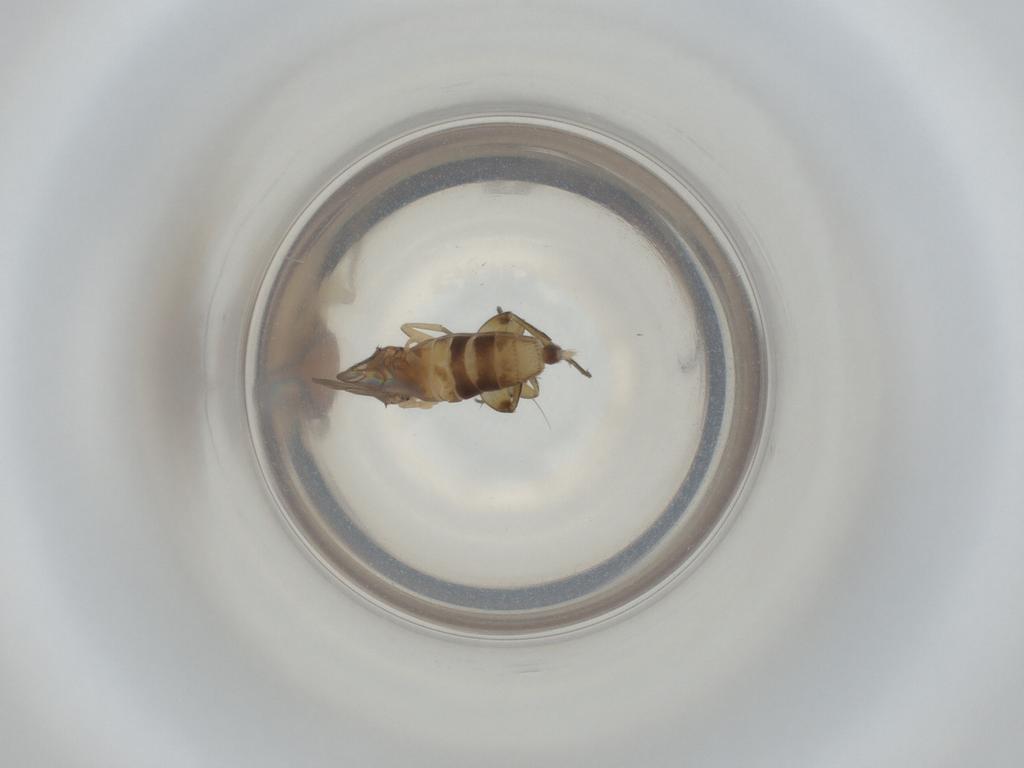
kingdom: Animalia
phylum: Arthropoda
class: Insecta
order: Diptera
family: Phoridae
